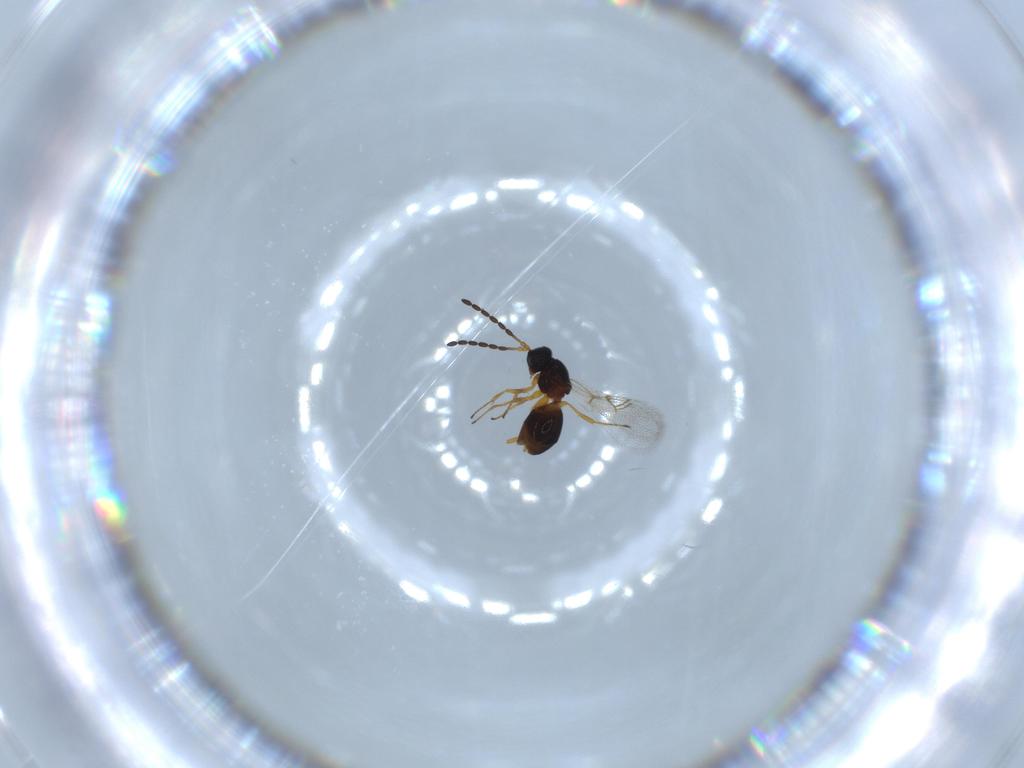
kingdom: Animalia
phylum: Arthropoda
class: Insecta
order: Hymenoptera
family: Figitidae
